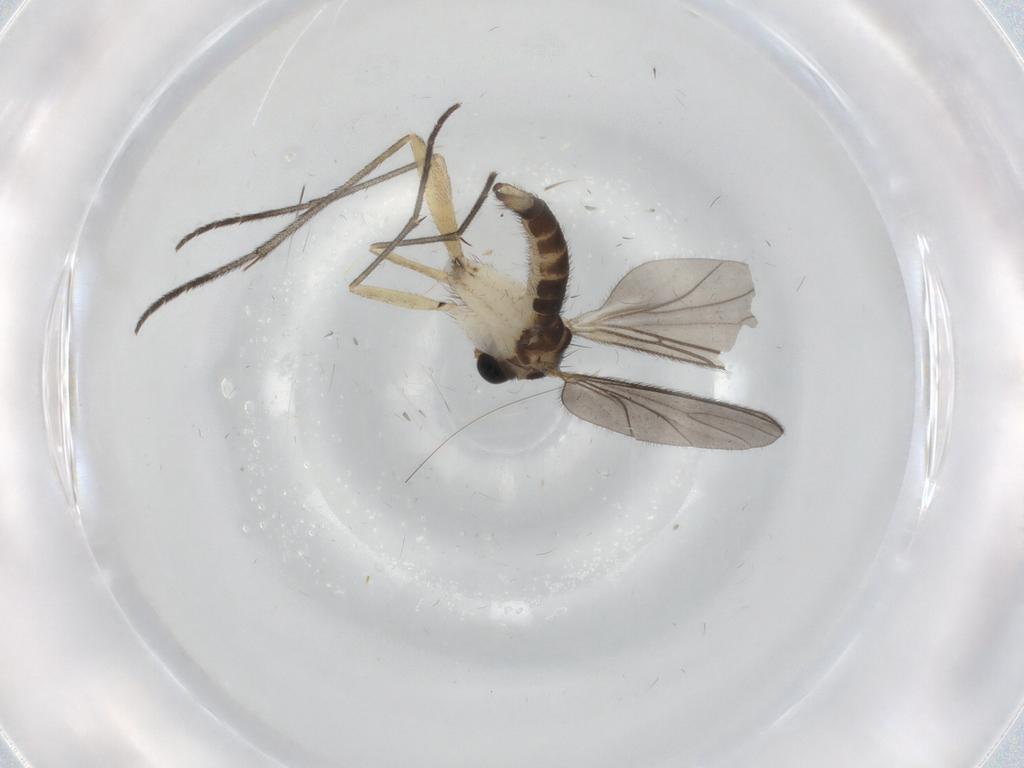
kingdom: Animalia
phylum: Arthropoda
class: Insecta
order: Diptera
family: Sciaridae
